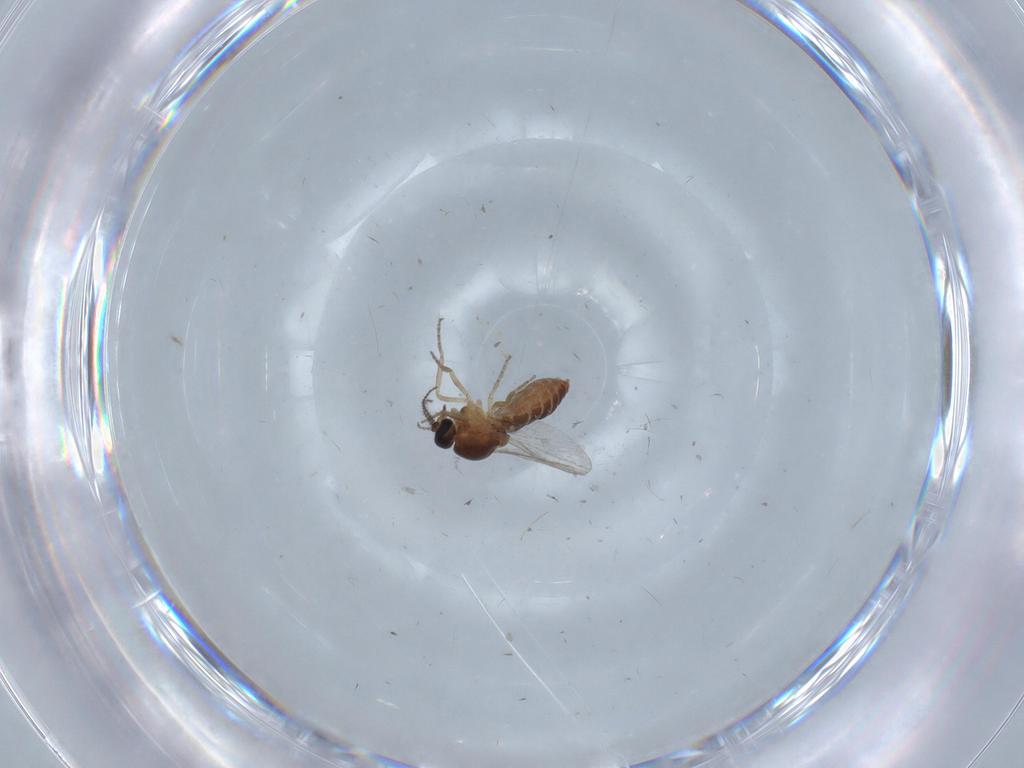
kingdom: Animalia
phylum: Arthropoda
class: Insecta
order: Diptera
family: Ceratopogonidae
